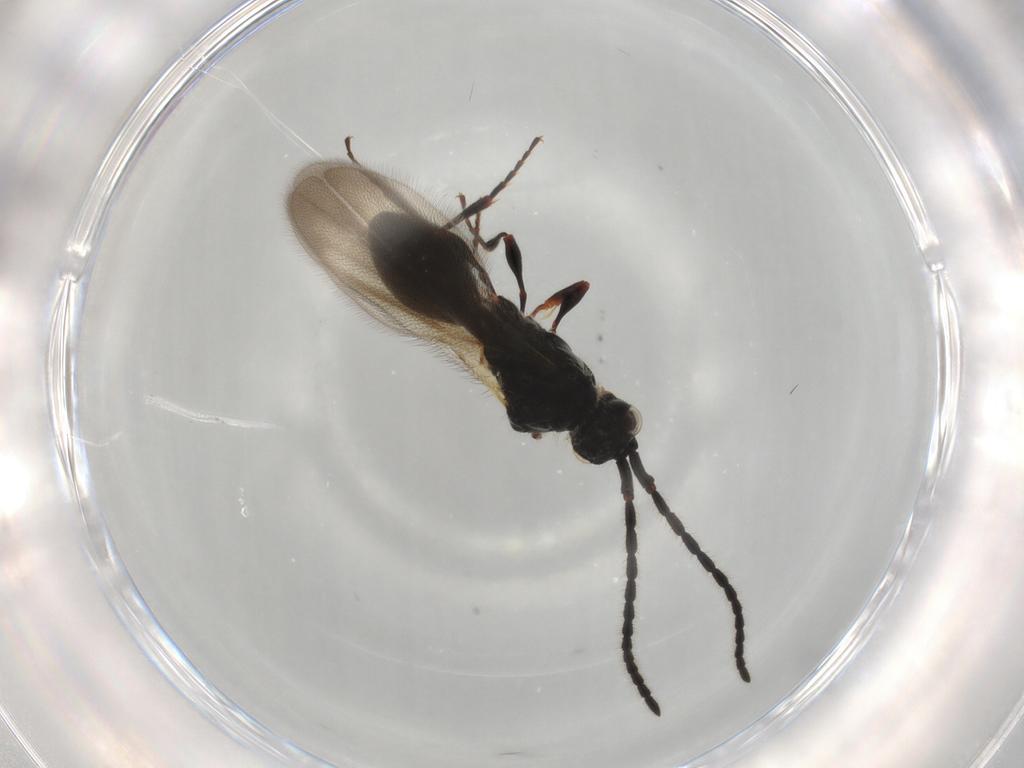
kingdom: Animalia
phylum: Arthropoda
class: Insecta
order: Hymenoptera
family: Diapriidae
